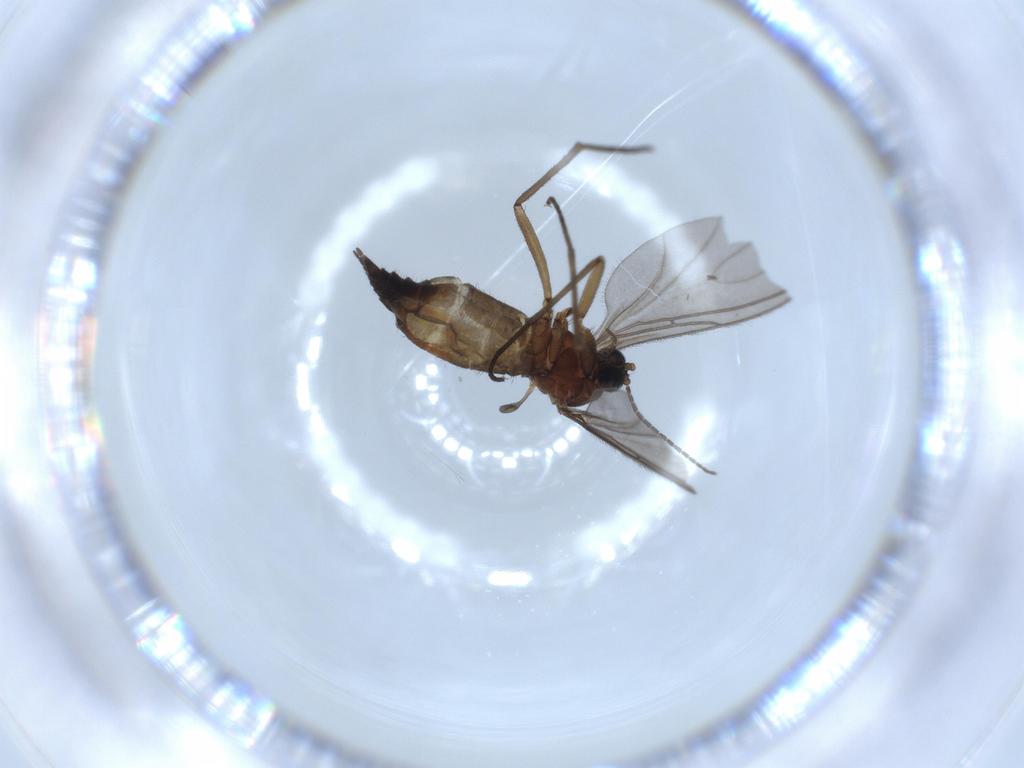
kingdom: Animalia
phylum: Arthropoda
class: Insecta
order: Diptera
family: Sciaridae
